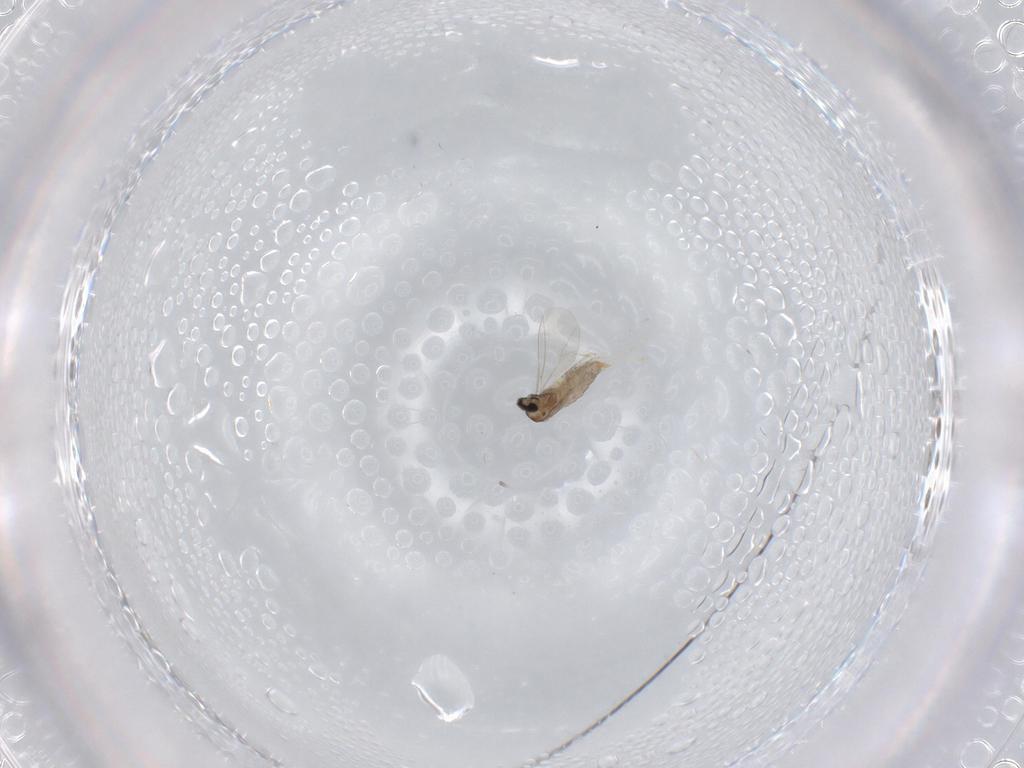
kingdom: Animalia
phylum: Arthropoda
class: Insecta
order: Diptera
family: Cecidomyiidae
